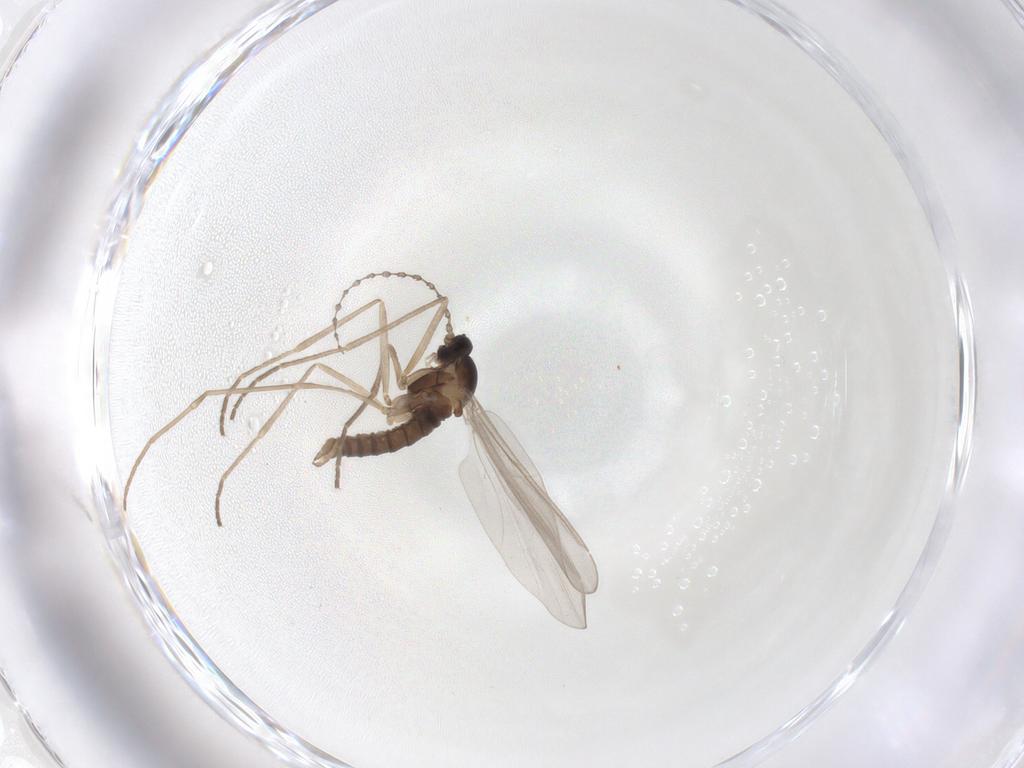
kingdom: Animalia
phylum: Arthropoda
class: Insecta
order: Diptera
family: Cecidomyiidae
